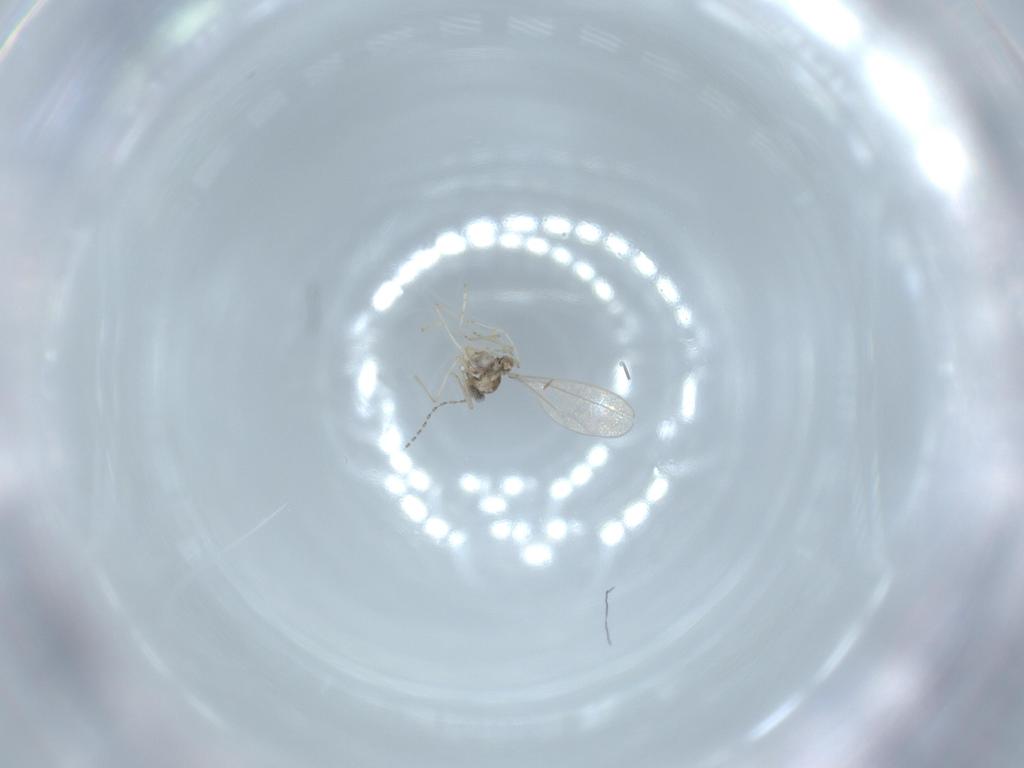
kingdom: Animalia
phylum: Arthropoda
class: Insecta
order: Diptera
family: Cecidomyiidae
